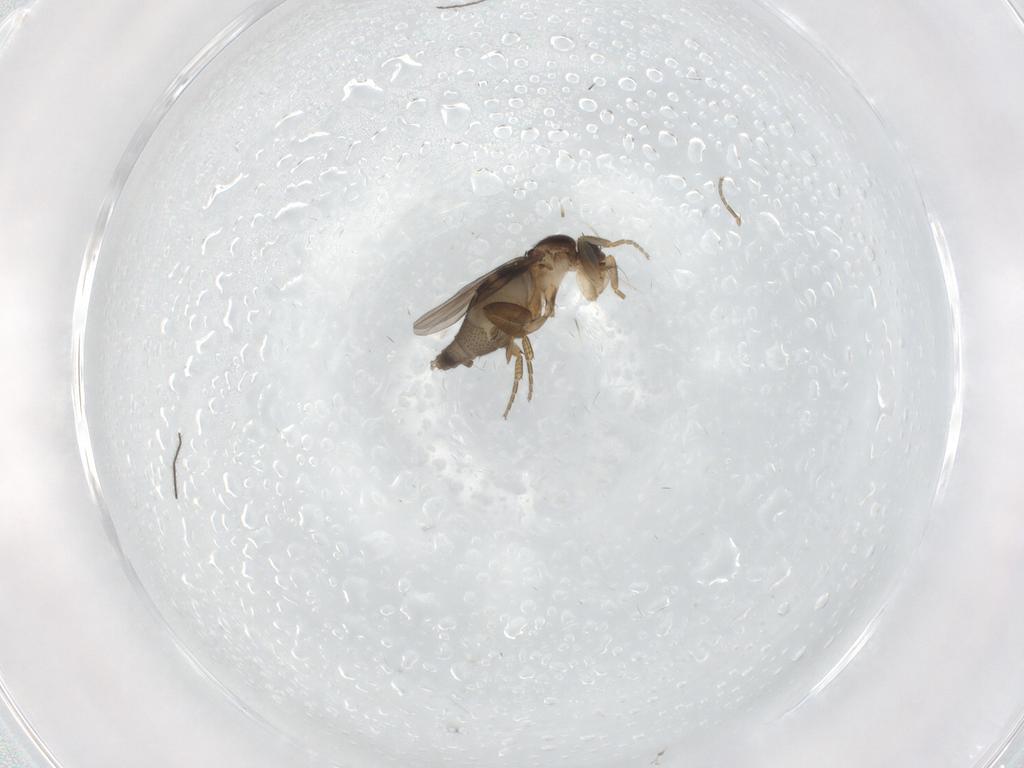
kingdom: Animalia
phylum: Arthropoda
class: Insecta
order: Diptera
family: Phoridae
